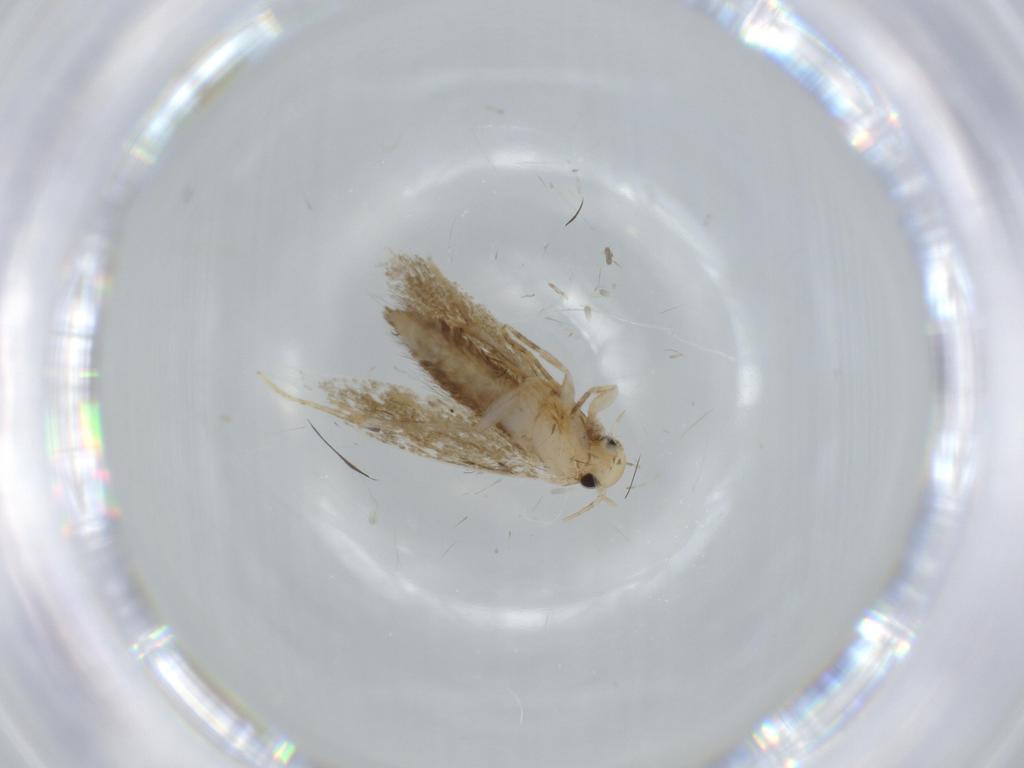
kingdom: Animalia
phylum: Arthropoda
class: Insecta
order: Lepidoptera
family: Tineidae
